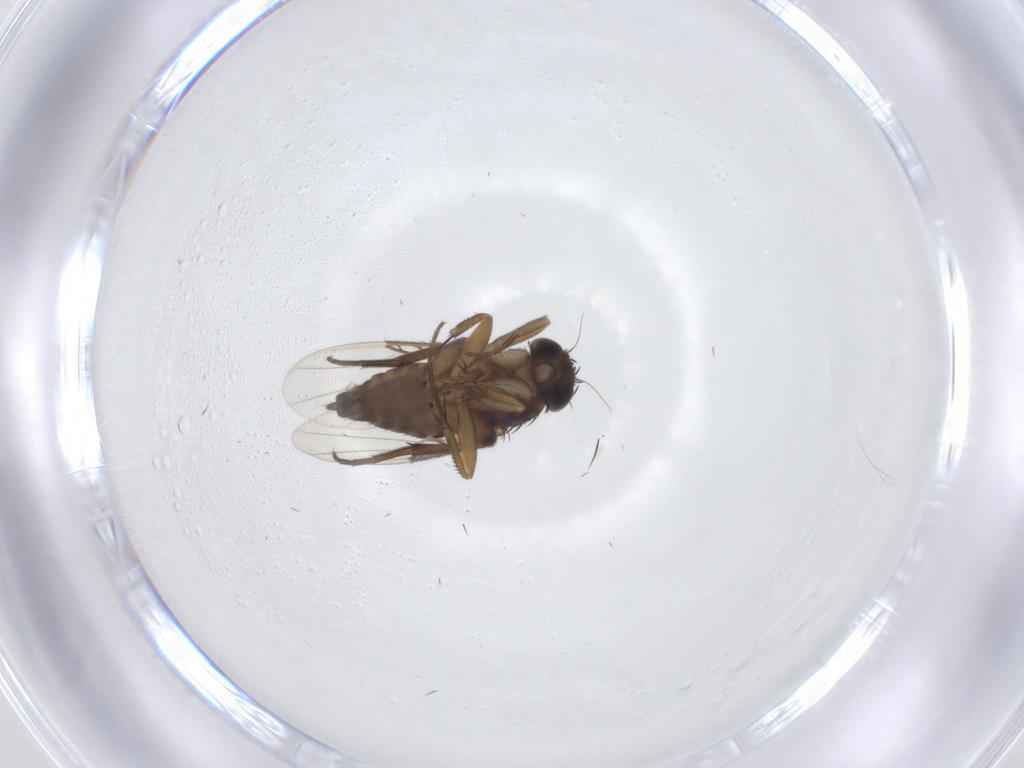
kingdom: Animalia
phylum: Arthropoda
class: Insecta
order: Diptera
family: Phoridae
